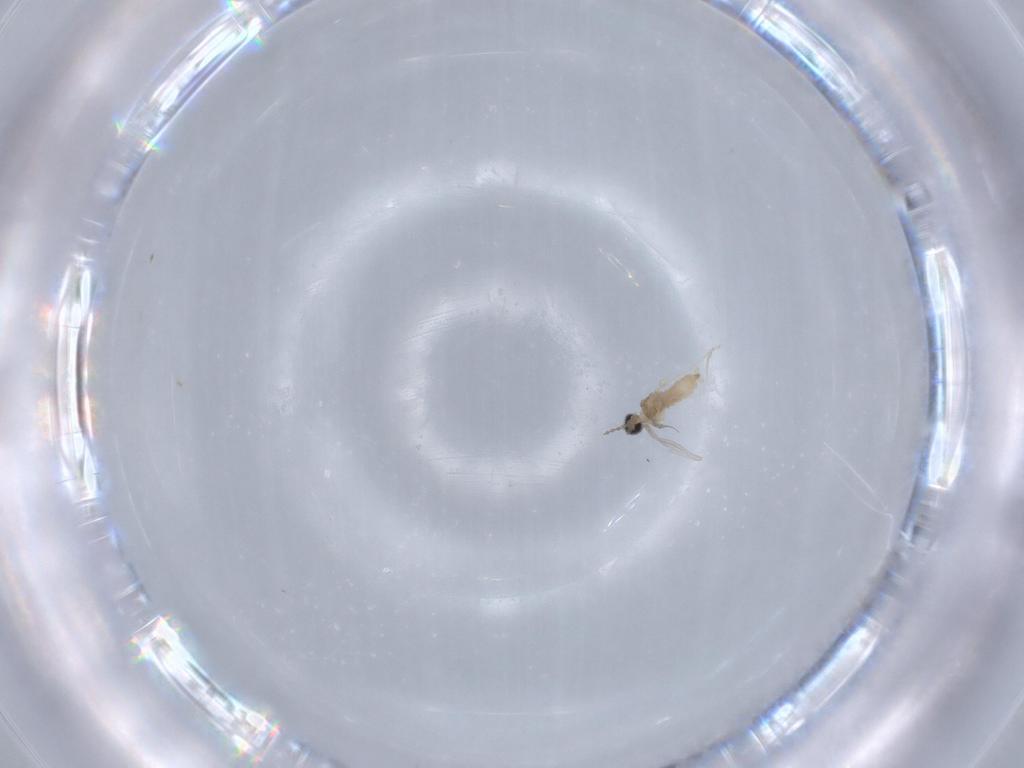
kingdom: Animalia
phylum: Arthropoda
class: Insecta
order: Diptera
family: Cecidomyiidae
